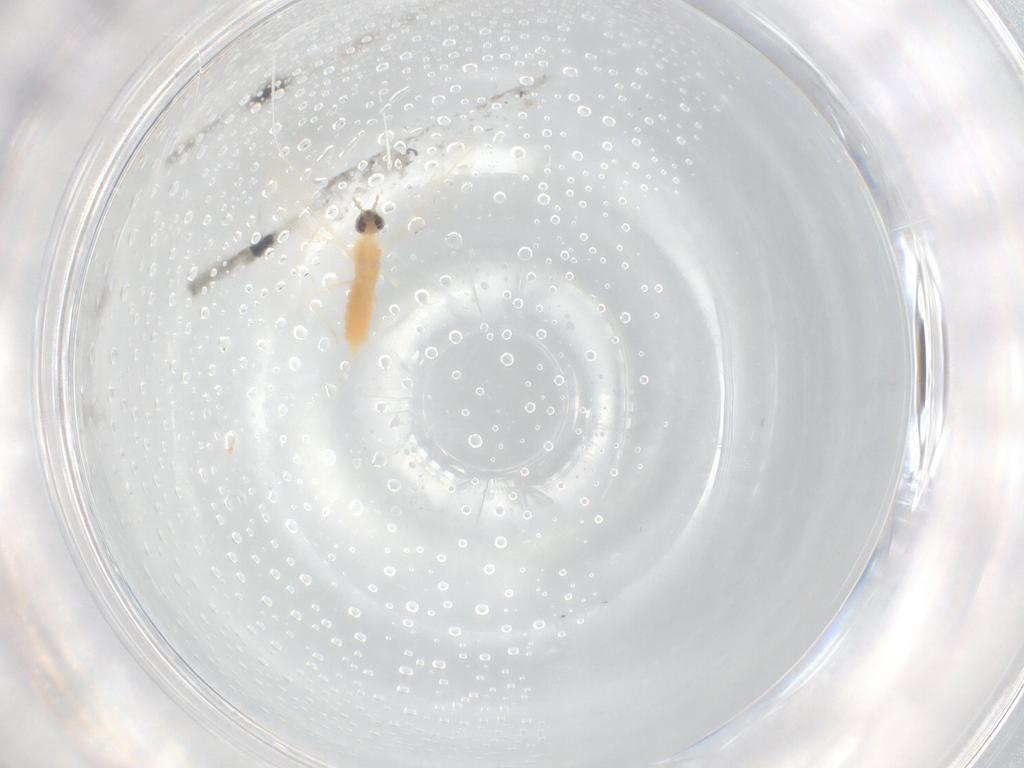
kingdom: Animalia
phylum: Arthropoda
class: Insecta
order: Diptera
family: Cecidomyiidae
